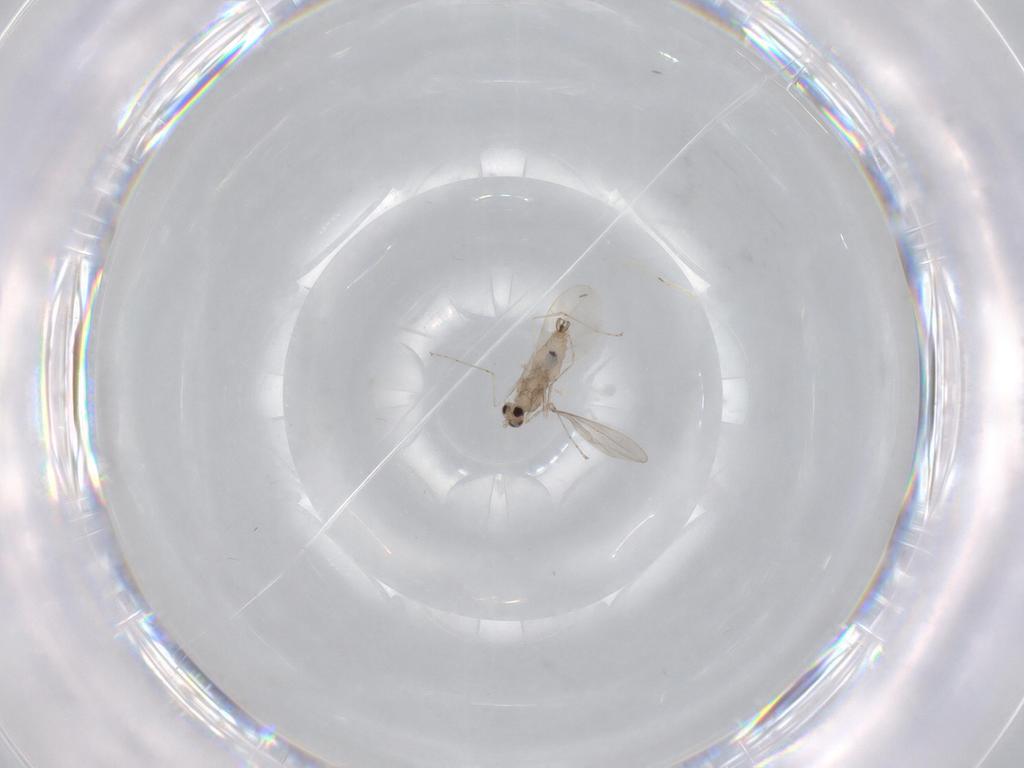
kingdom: Animalia
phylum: Arthropoda
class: Insecta
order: Diptera
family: Cecidomyiidae
